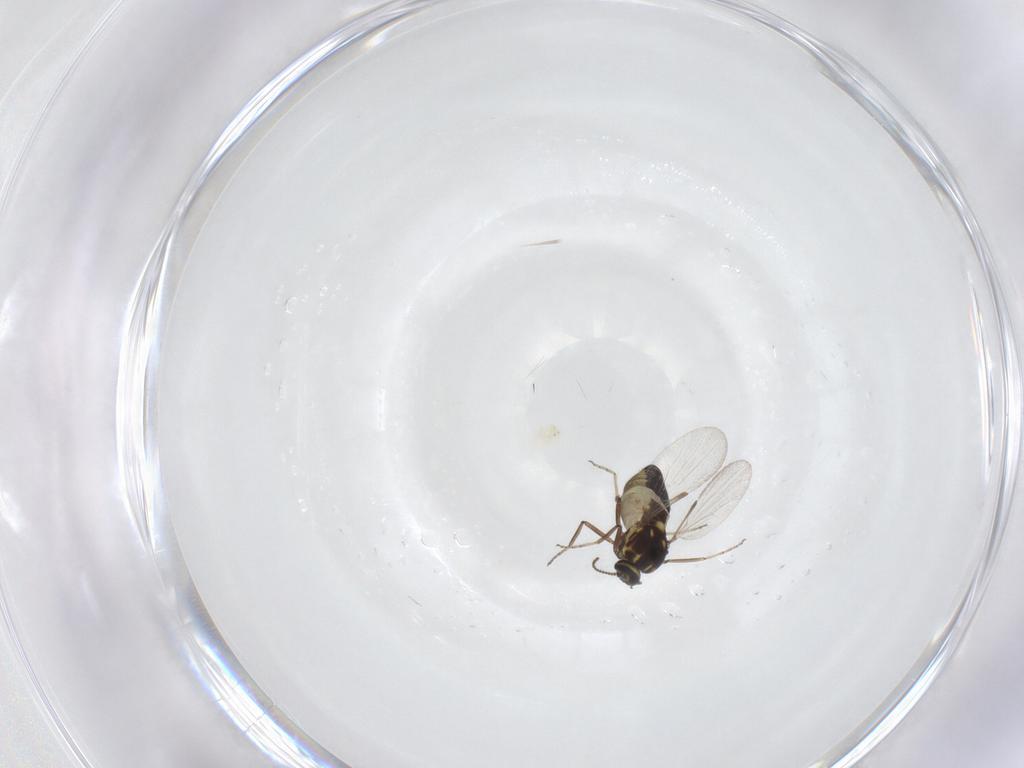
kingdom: Animalia
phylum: Arthropoda
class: Insecta
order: Diptera
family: Ceratopogonidae
